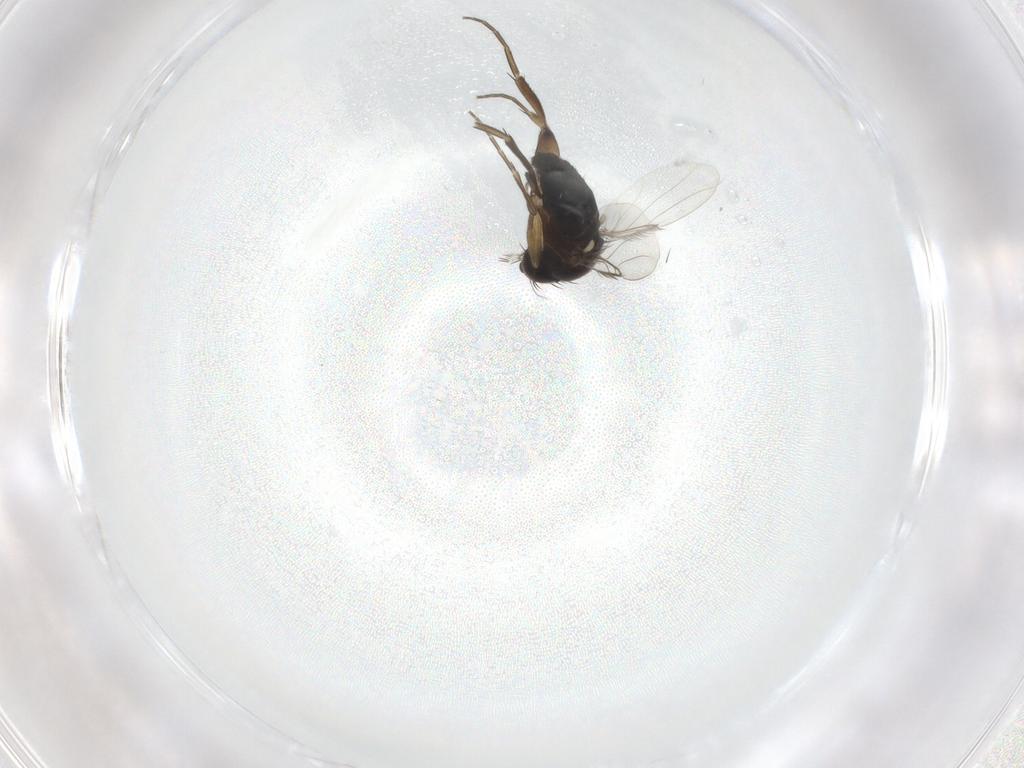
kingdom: Animalia
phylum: Arthropoda
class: Insecta
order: Diptera
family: Phoridae
